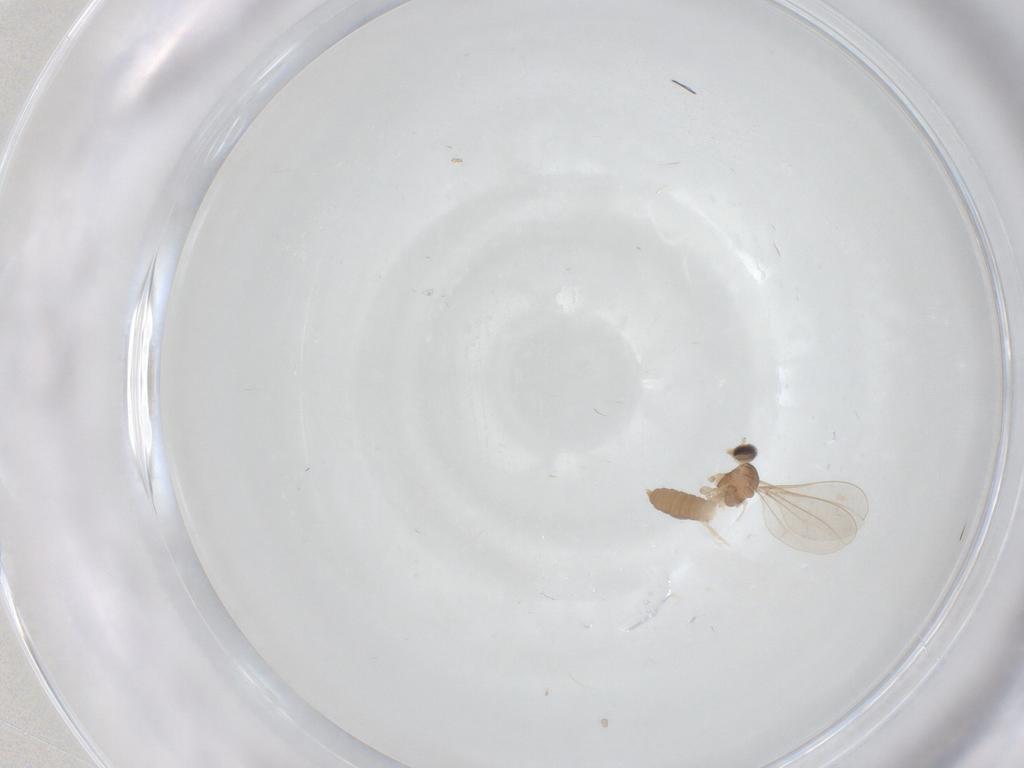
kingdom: Animalia
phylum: Arthropoda
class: Insecta
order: Diptera
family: Cecidomyiidae
